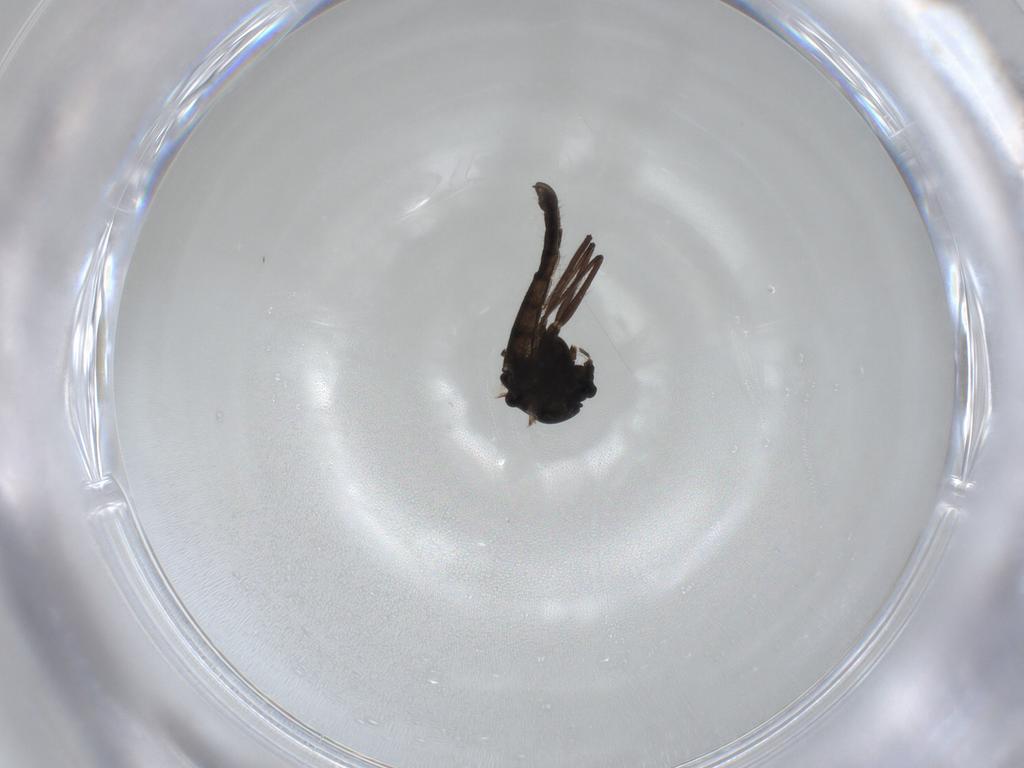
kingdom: Animalia
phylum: Arthropoda
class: Insecta
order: Diptera
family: Chironomidae
